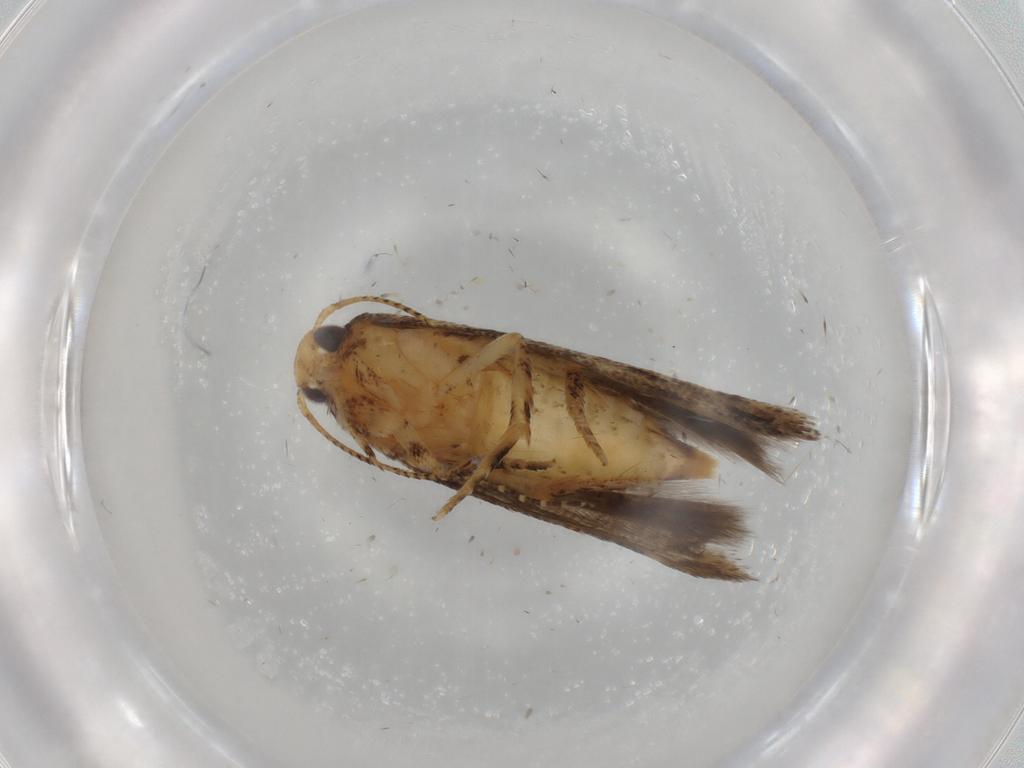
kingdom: Animalia
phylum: Arthropoda
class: Insecta
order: Lepidoptera
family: Gelechiidae
